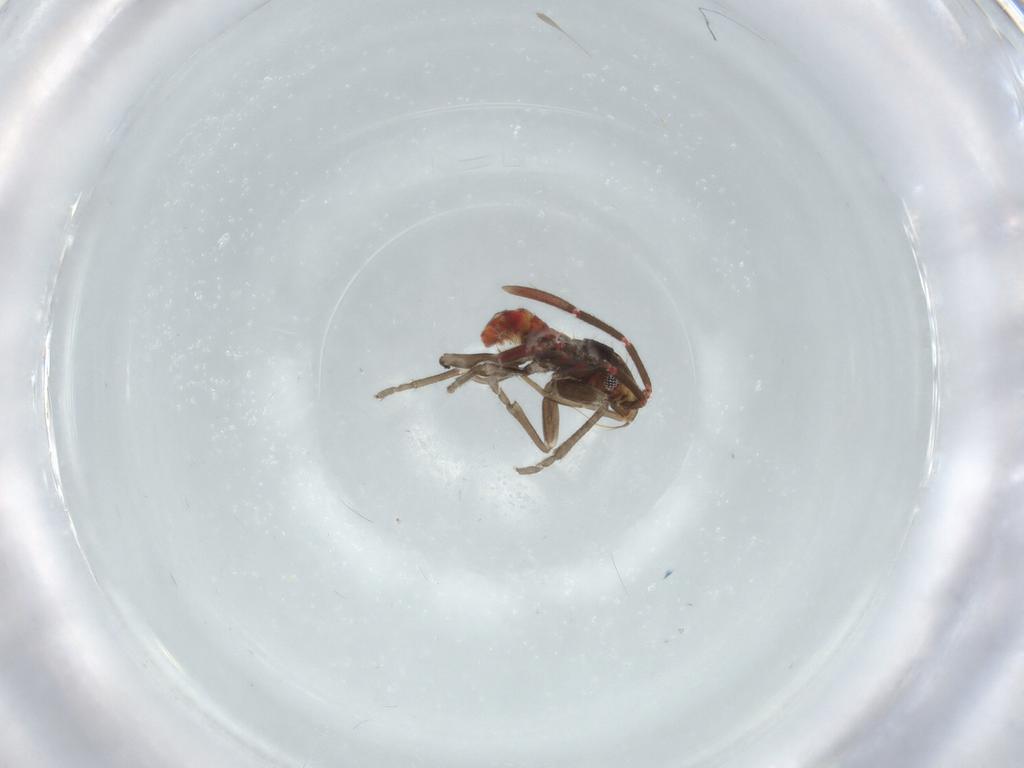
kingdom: Animalia
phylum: Arthropoda
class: Insecta
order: Hemiptera
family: Rhyparochromidae
